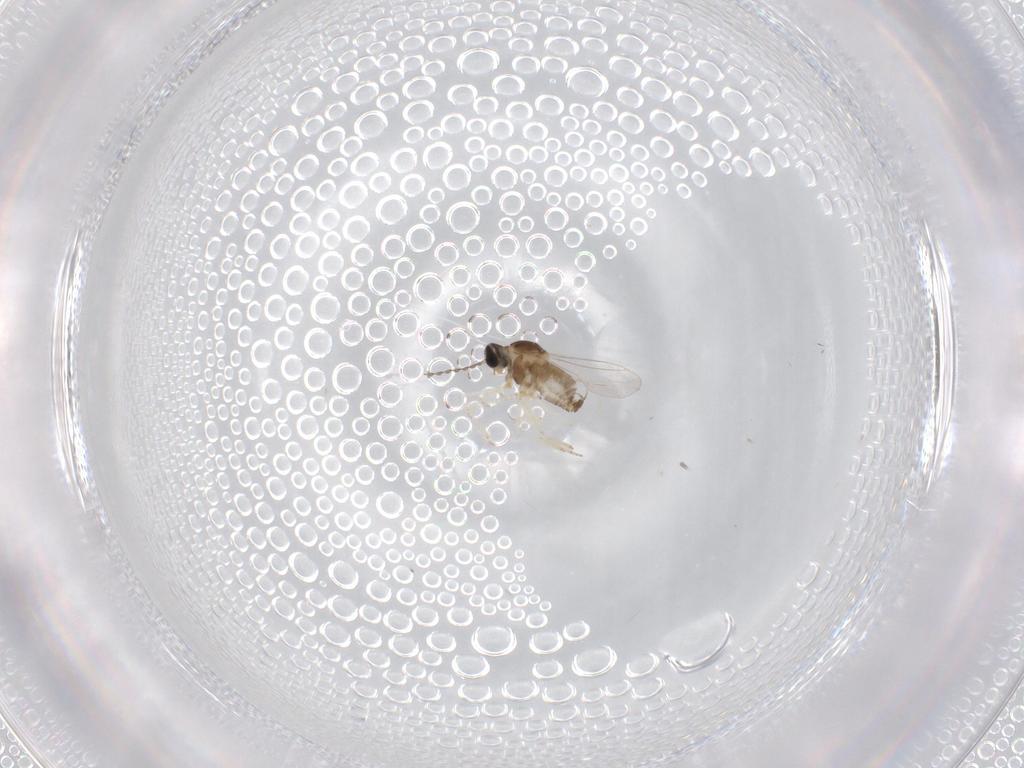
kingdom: Animalia
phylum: Arthropoda
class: Insecta
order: Diptera
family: Cecidomyiidae
